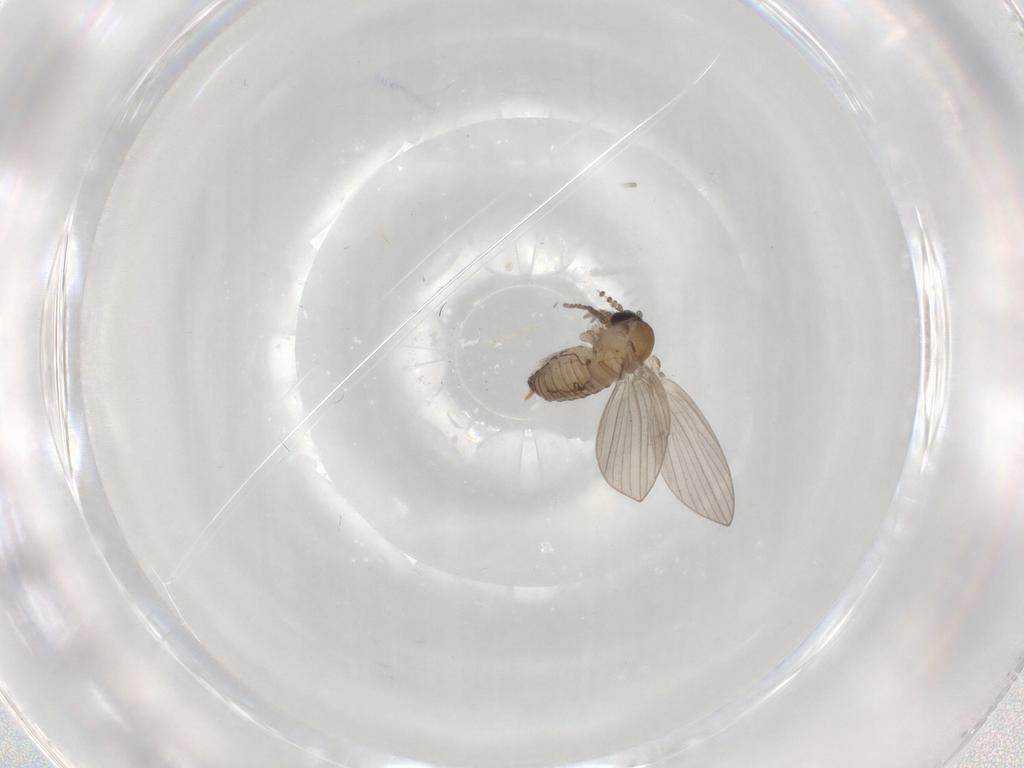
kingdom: Animalia
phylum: Arthropoda
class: Insecta
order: Diptera
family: Psychodidae
